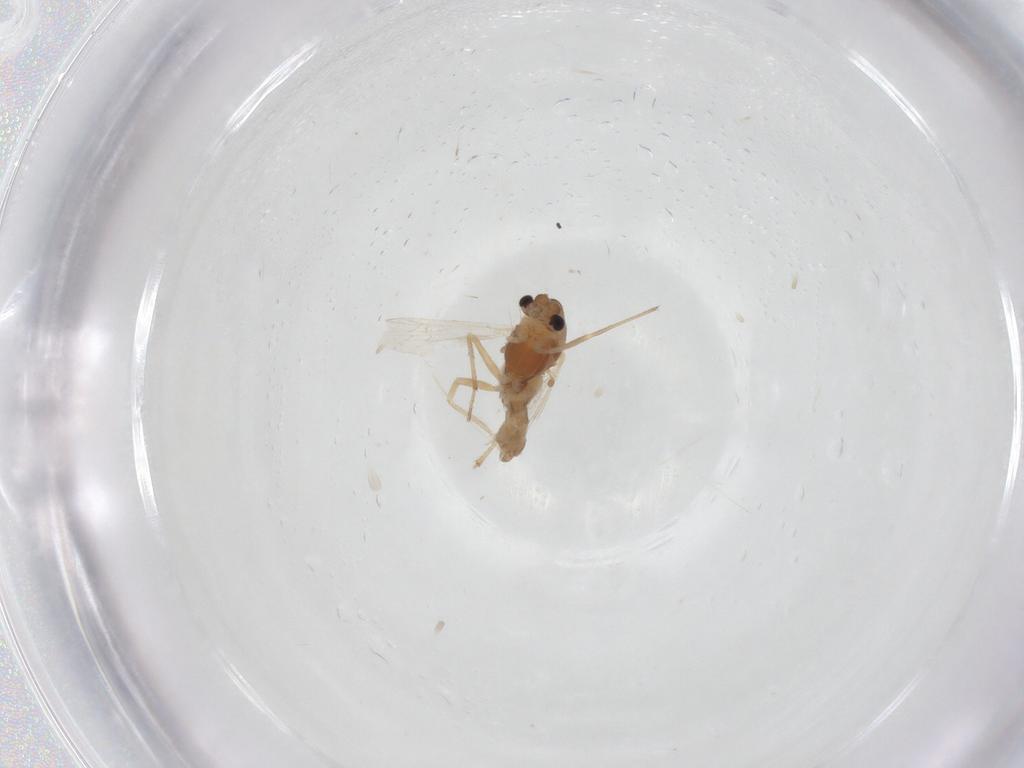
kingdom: Animalia
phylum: Arthropoda
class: Insecta
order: Diptera
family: Chironomidae
